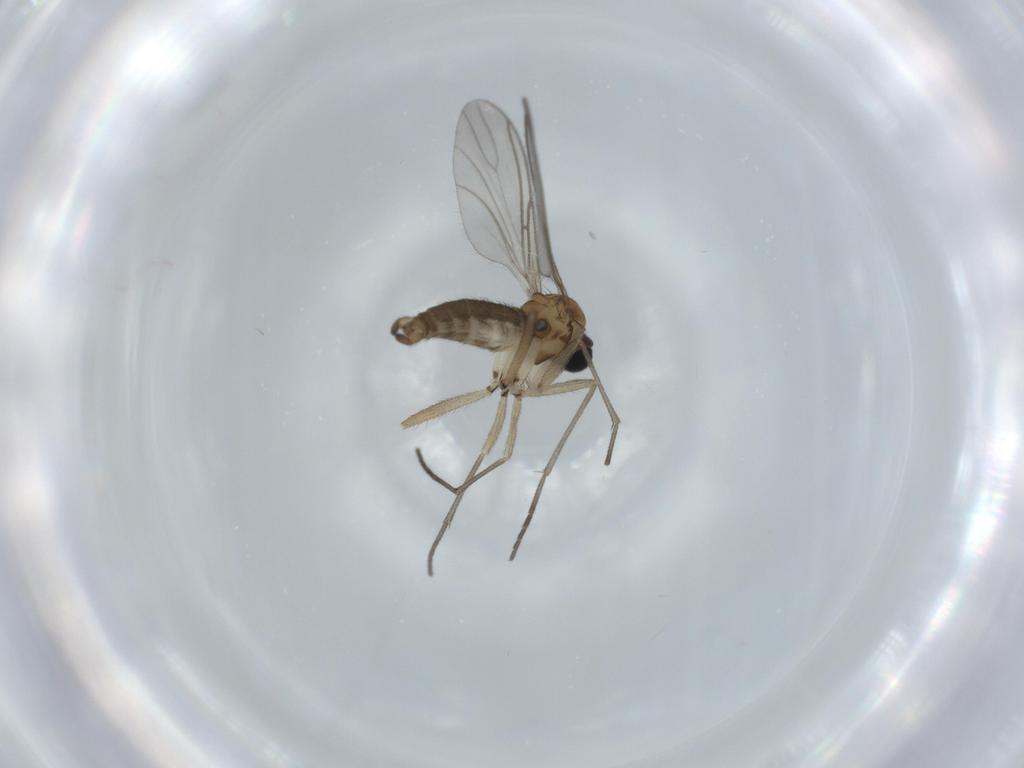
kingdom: Animalia
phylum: Arthropoda
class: Insecta
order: Diptera
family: Sciaridae
